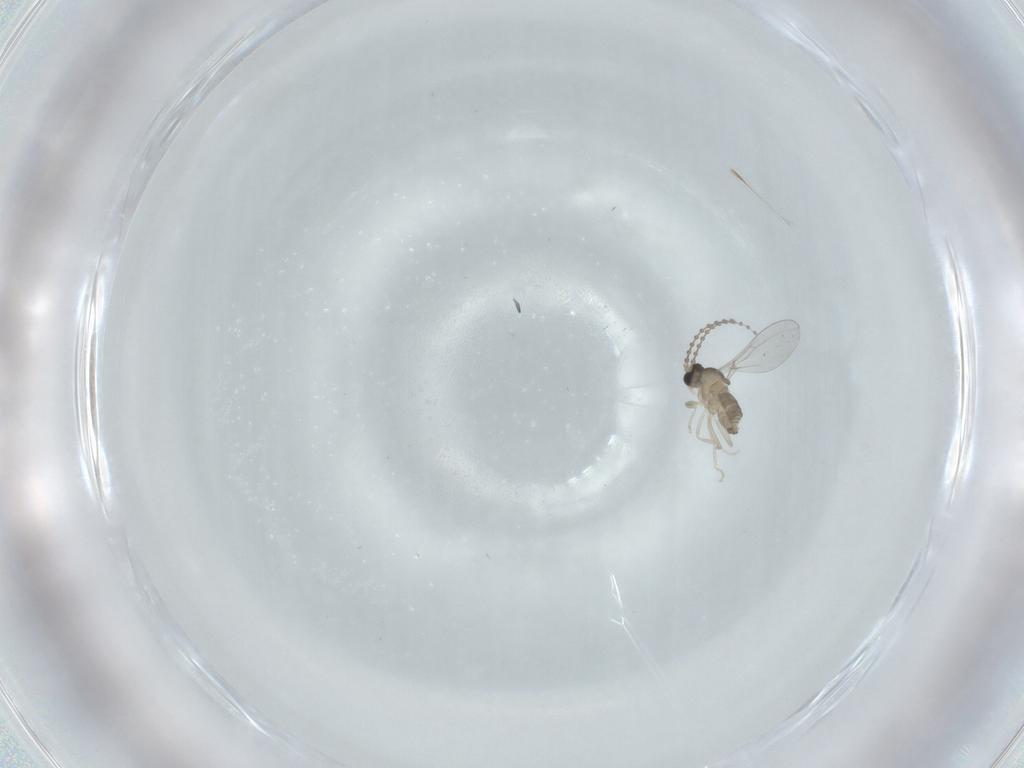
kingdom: Animalia
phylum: Arthropoda
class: Insecta
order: Diptera
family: Cecidomyiidae
